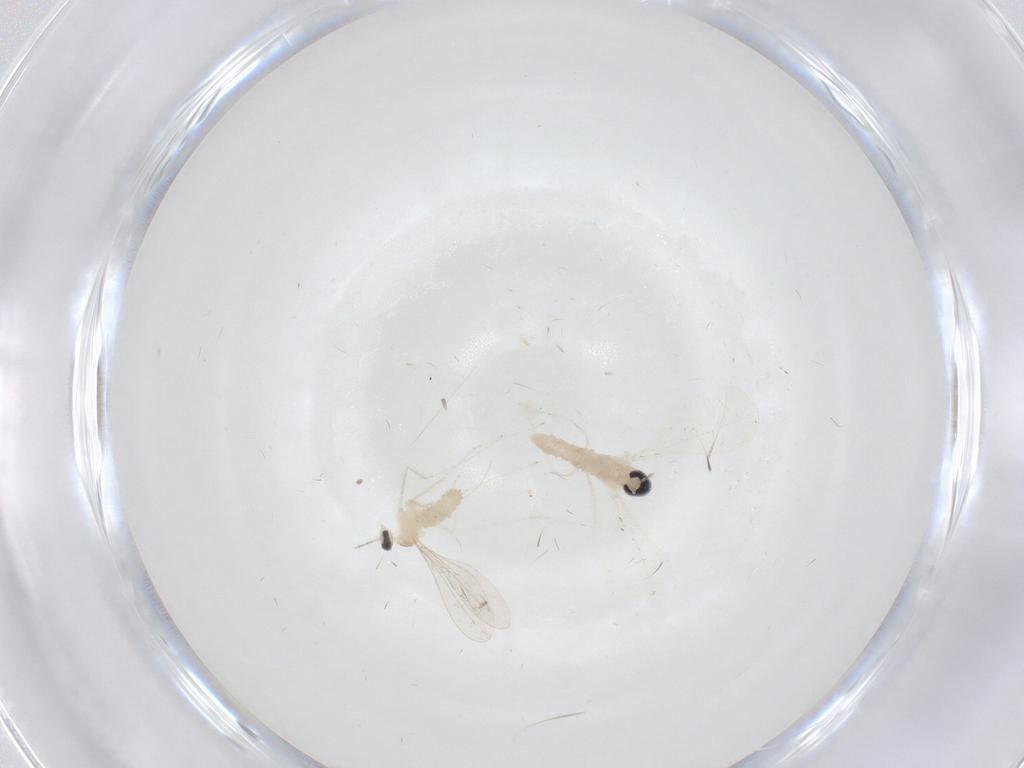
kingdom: Animalia
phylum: Arthropoda
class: Insecta
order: Diptera
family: Cecidomyiidae
